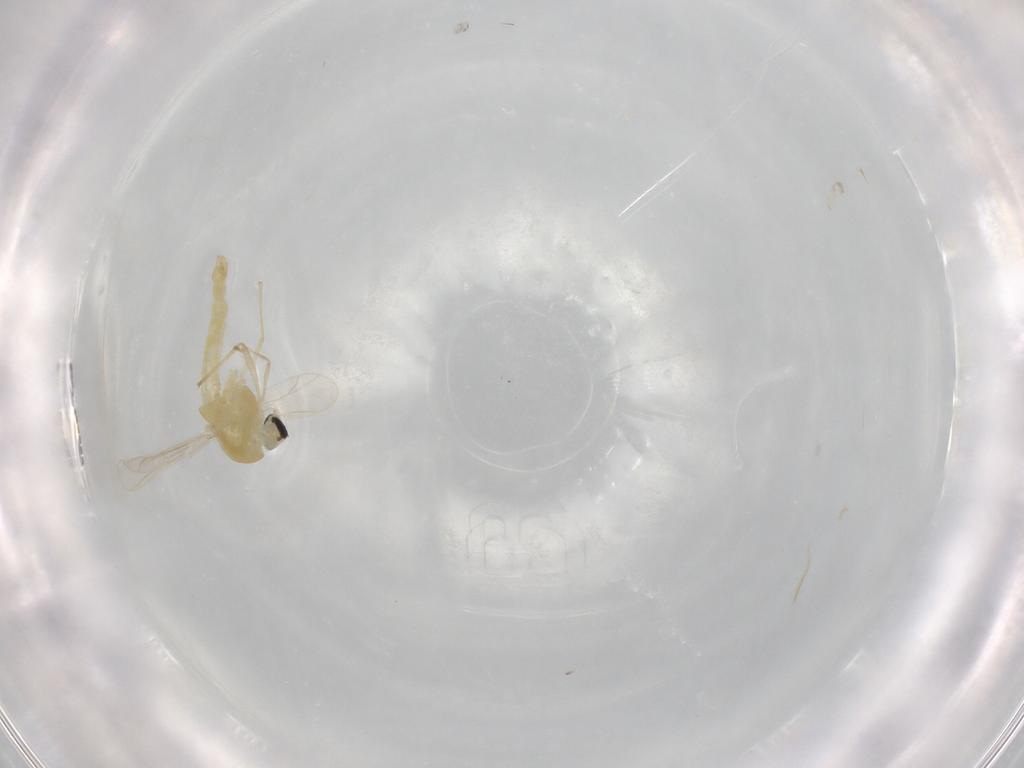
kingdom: Animalia
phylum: Arthropoda
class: Insecta
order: Diptera
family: Chironomidae
